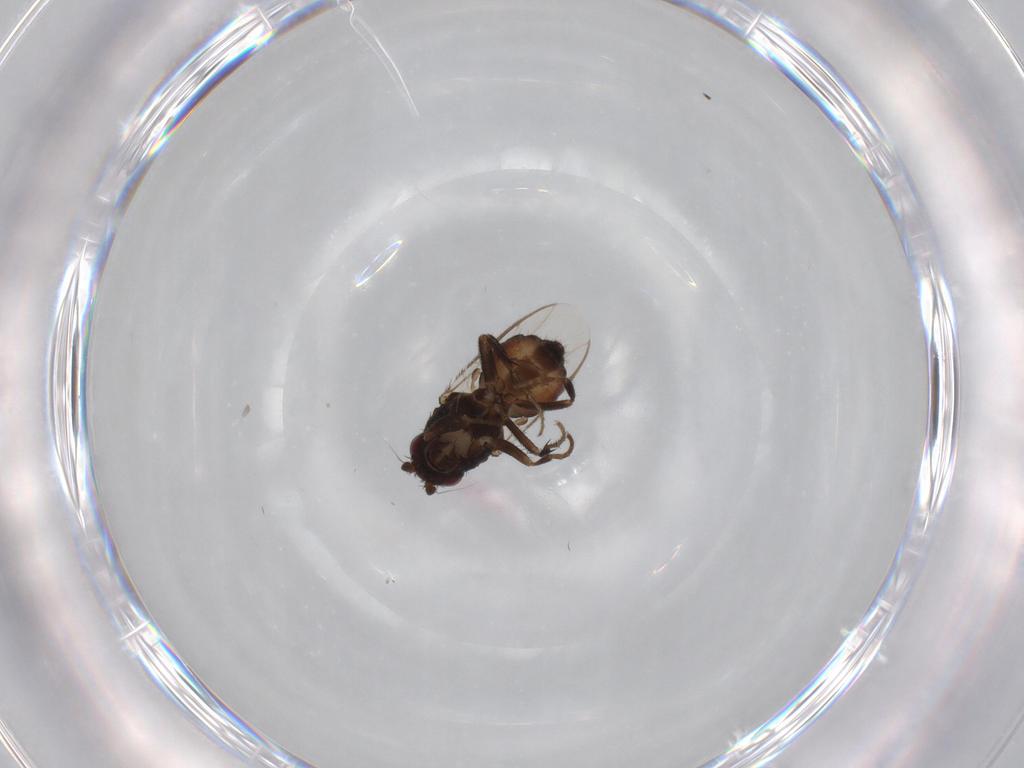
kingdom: Animalia
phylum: Arthropoda
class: Insecta
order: Diptera
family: Sphaeroceridae
